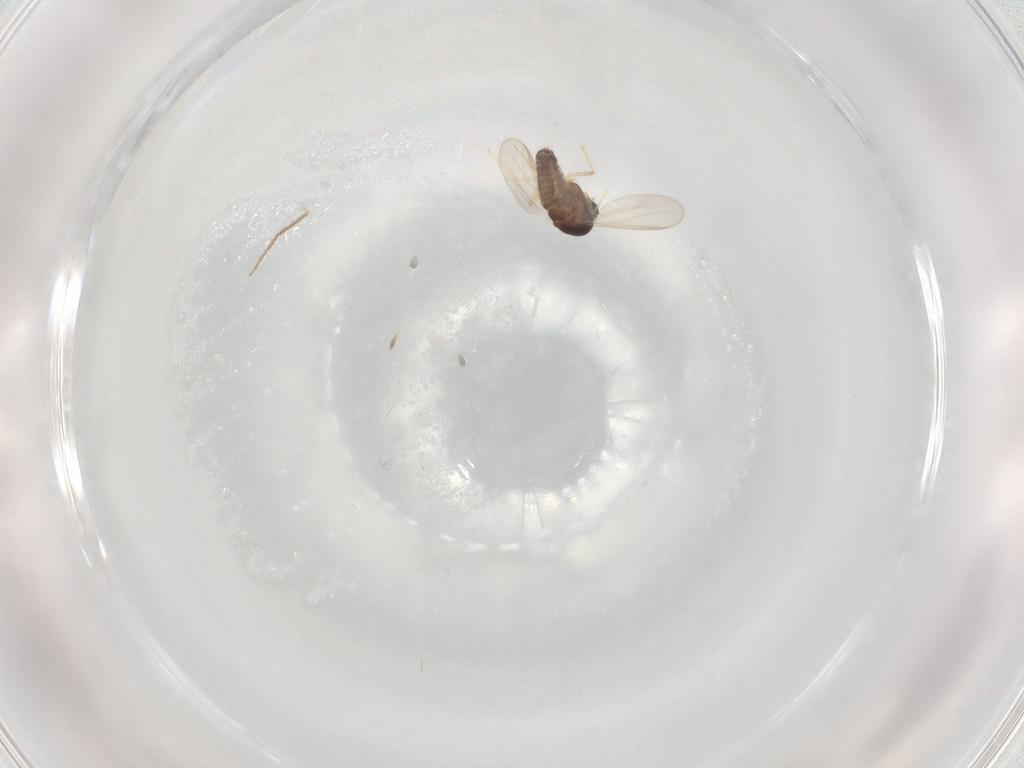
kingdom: Animalia
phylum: Arthropoda
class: Insecta
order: Diptera
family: Chironomidae
